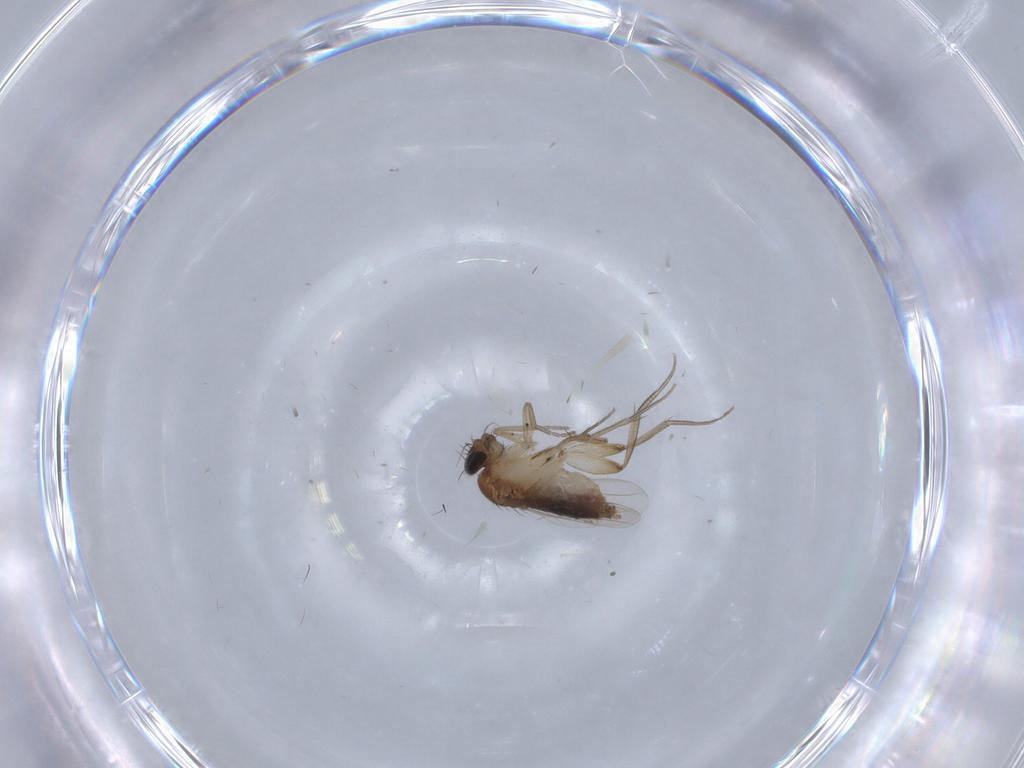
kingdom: Animalia
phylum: Arthropoda
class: Insecta
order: Diptera
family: Phoridae
